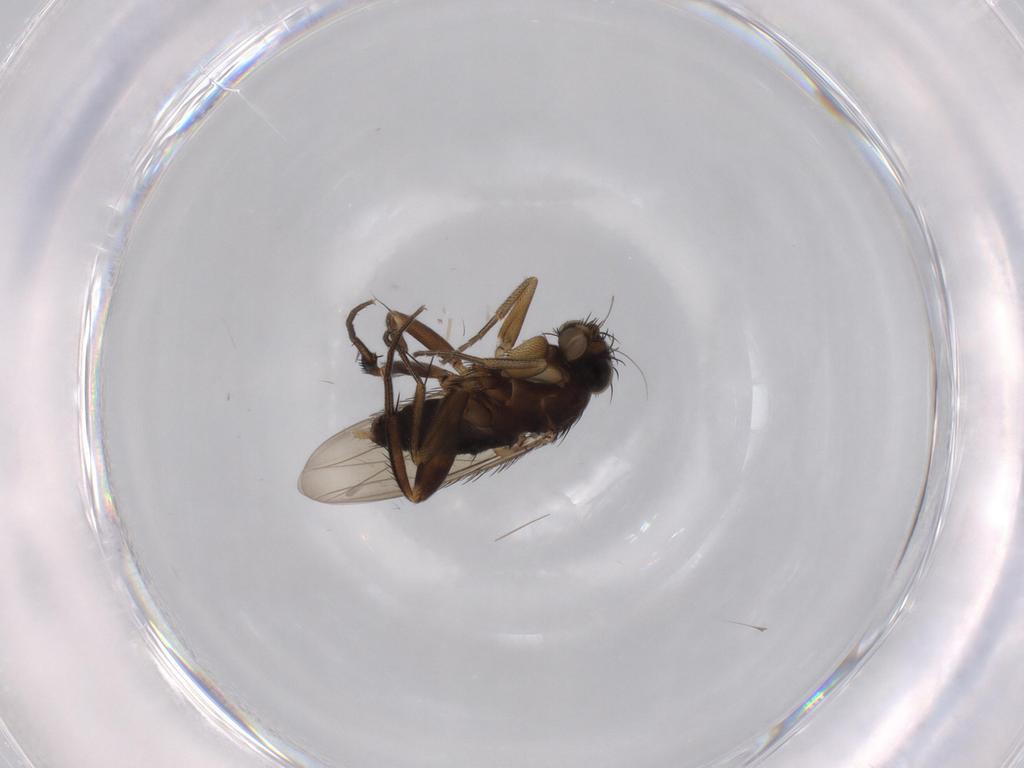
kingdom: Animalia
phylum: Arthropoda
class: Insecta
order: Diptera
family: Phoridae
